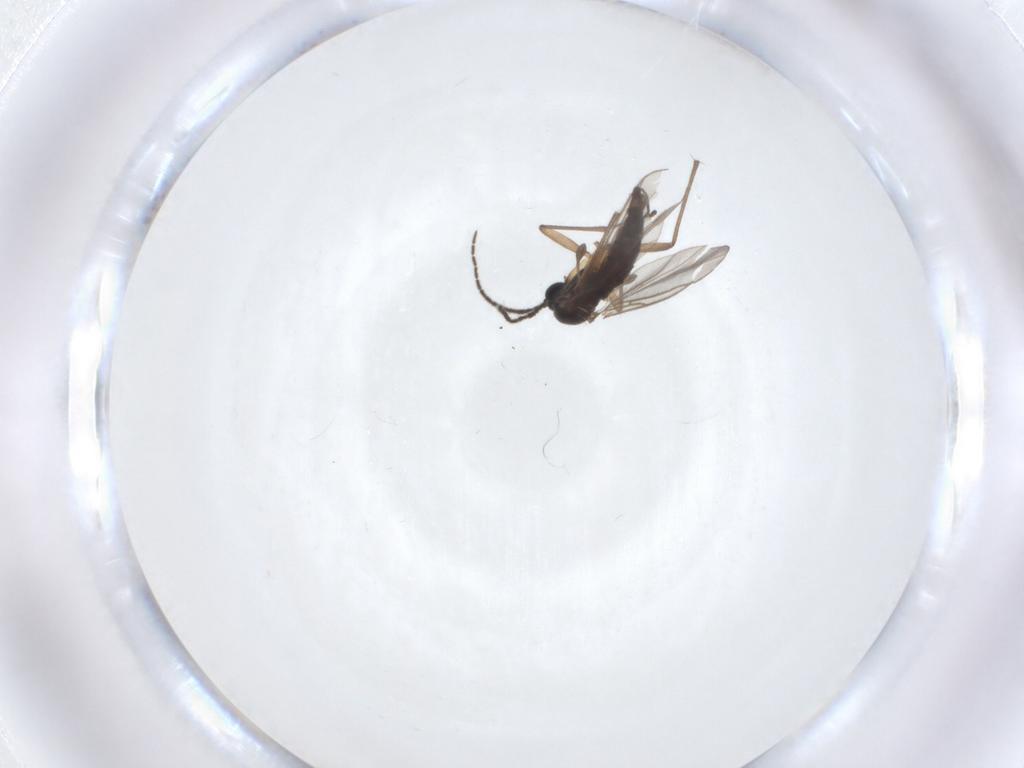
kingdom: Animalia
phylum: Arthropoda
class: Insecta
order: Diptera
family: Sciaridae
